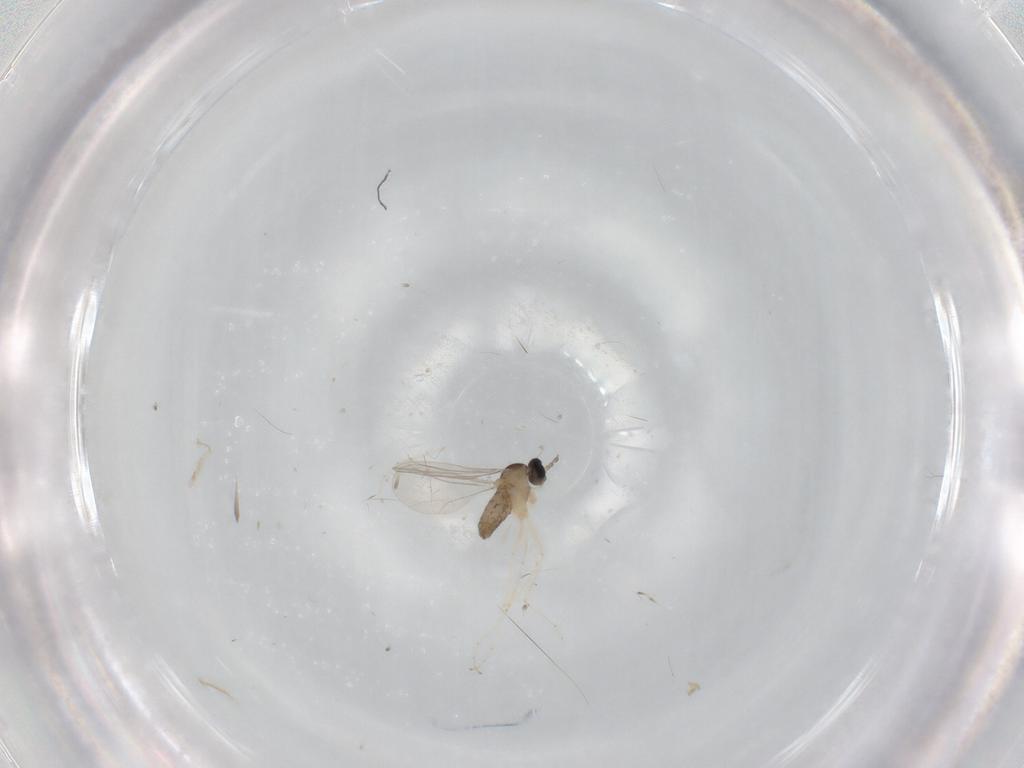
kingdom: Animalia
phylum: Arthropoda
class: Insecta
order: Diptera
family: Cecidomyiidae
